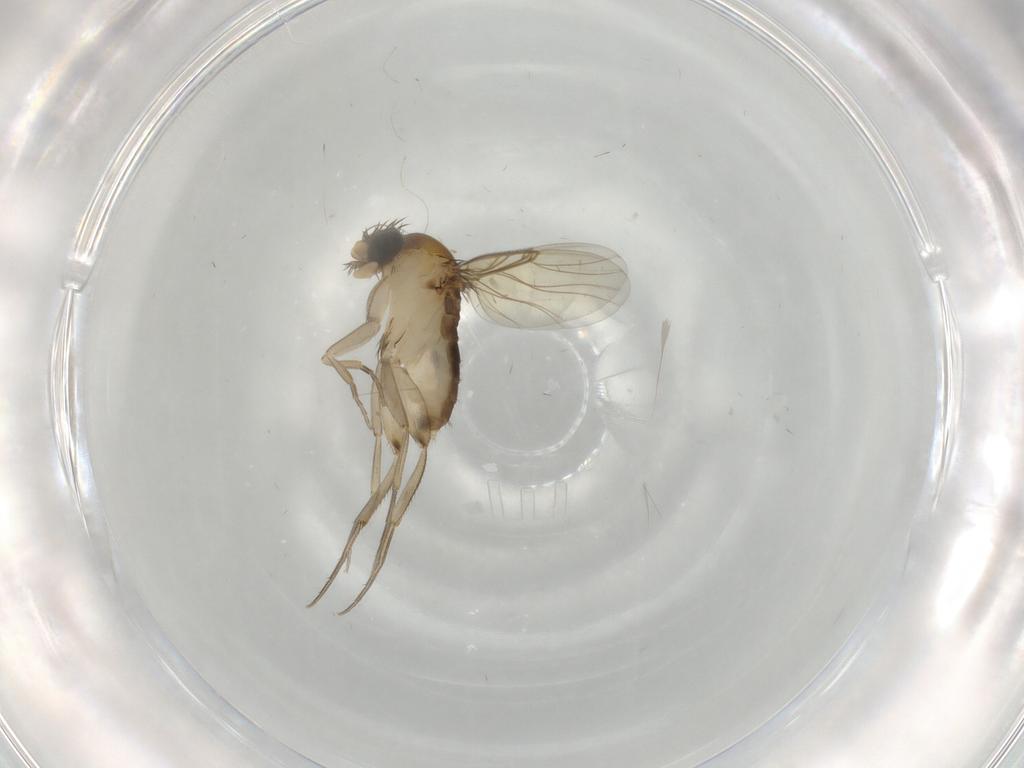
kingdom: Animalia
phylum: Arthropoda
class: Insecta
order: Diptera
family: Phoridae
